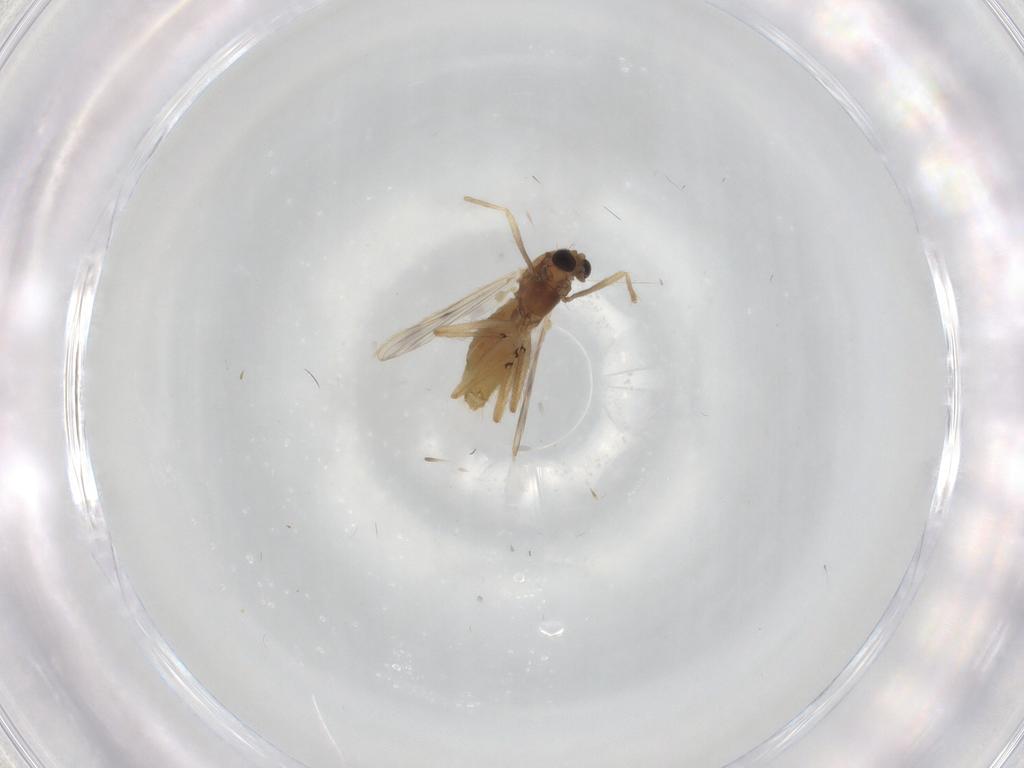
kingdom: Animalia
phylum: Arthropoda
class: Insecta
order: Diptera
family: Chironomidae
